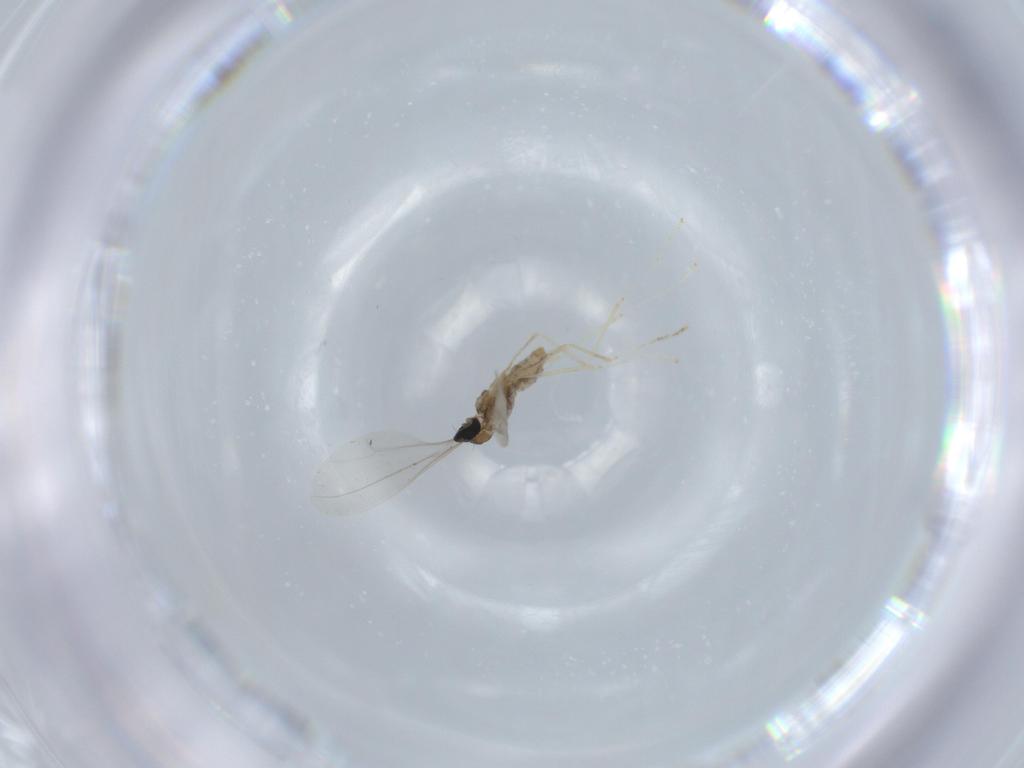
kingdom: Animalia
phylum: Arthropoda
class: Insecta
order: Diptera
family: Cecidomyiidae
